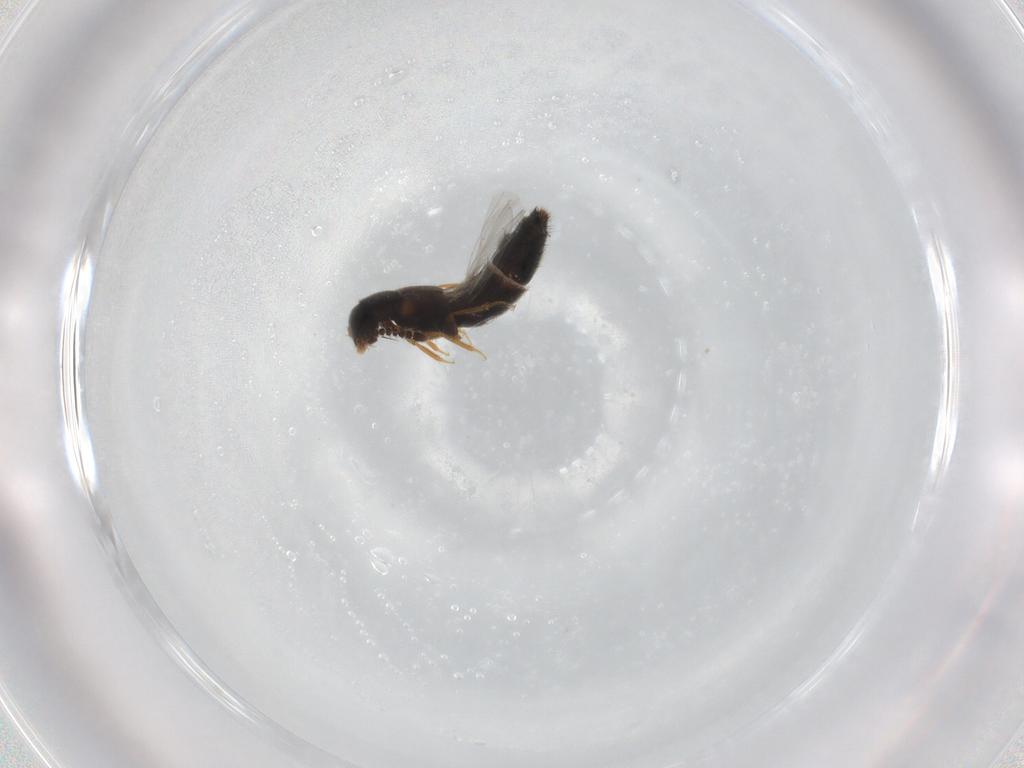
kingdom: Animalia
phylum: Arthropoda
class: Insecta
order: Coleoptera
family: Staphylinidae
